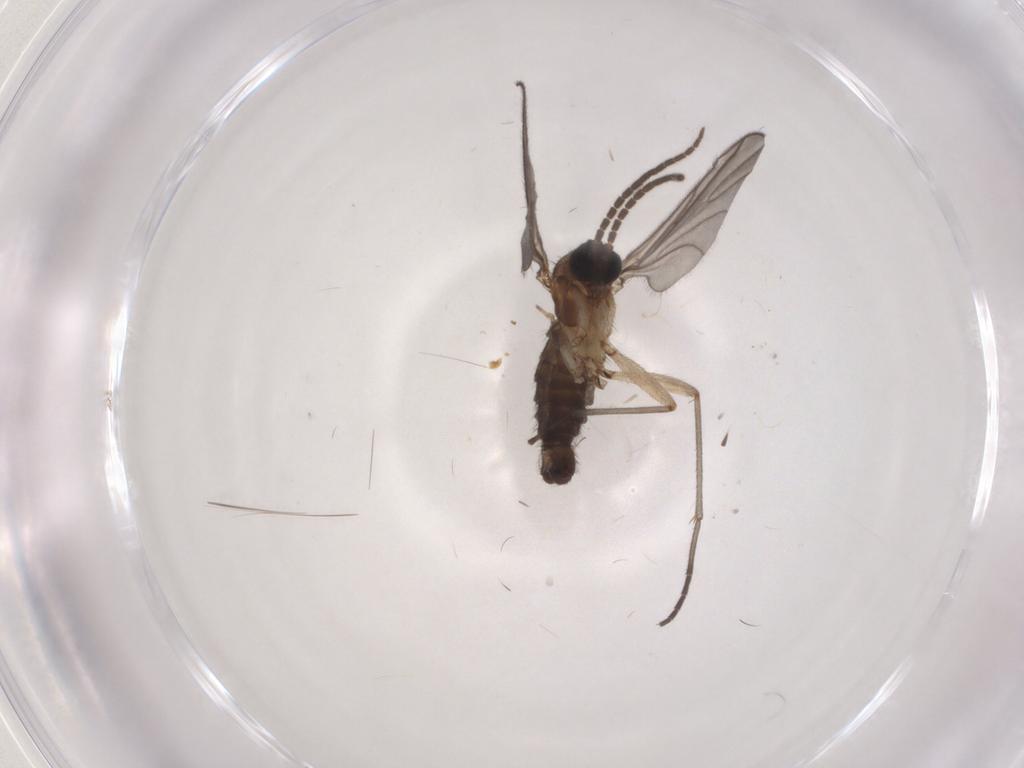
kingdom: Animalia
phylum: Arthropoda
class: Insecta
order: Diptera
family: Sciaridae
